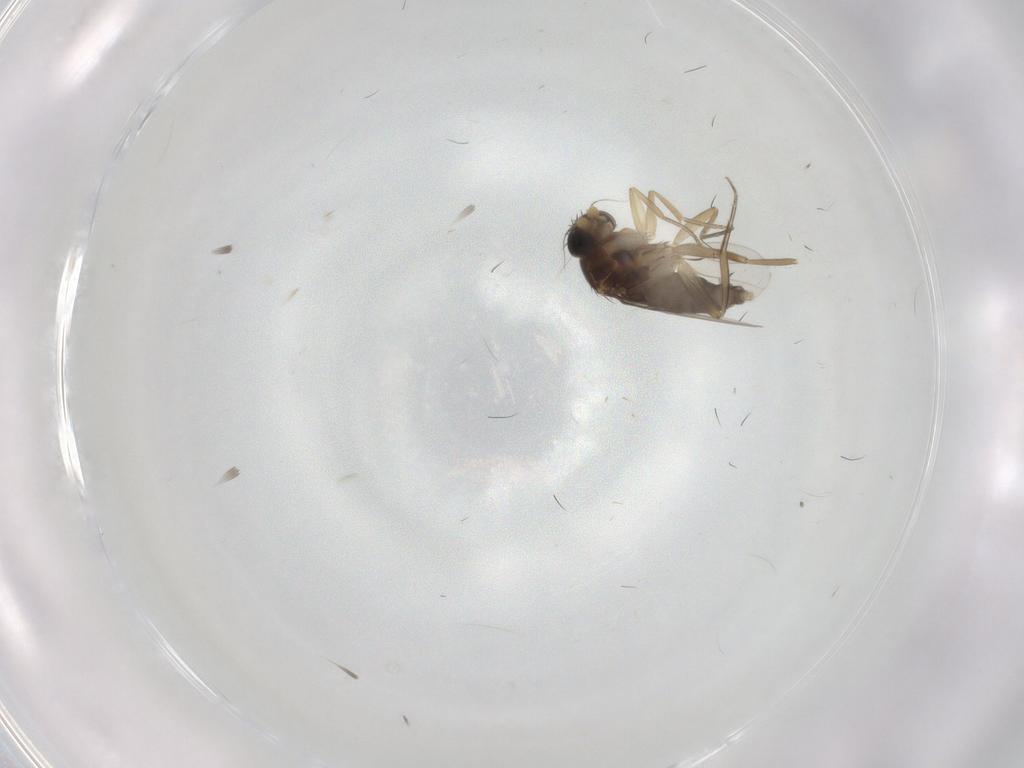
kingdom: Animalia
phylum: Arthropoda
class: Insecta
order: Diptera
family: Phoridae
